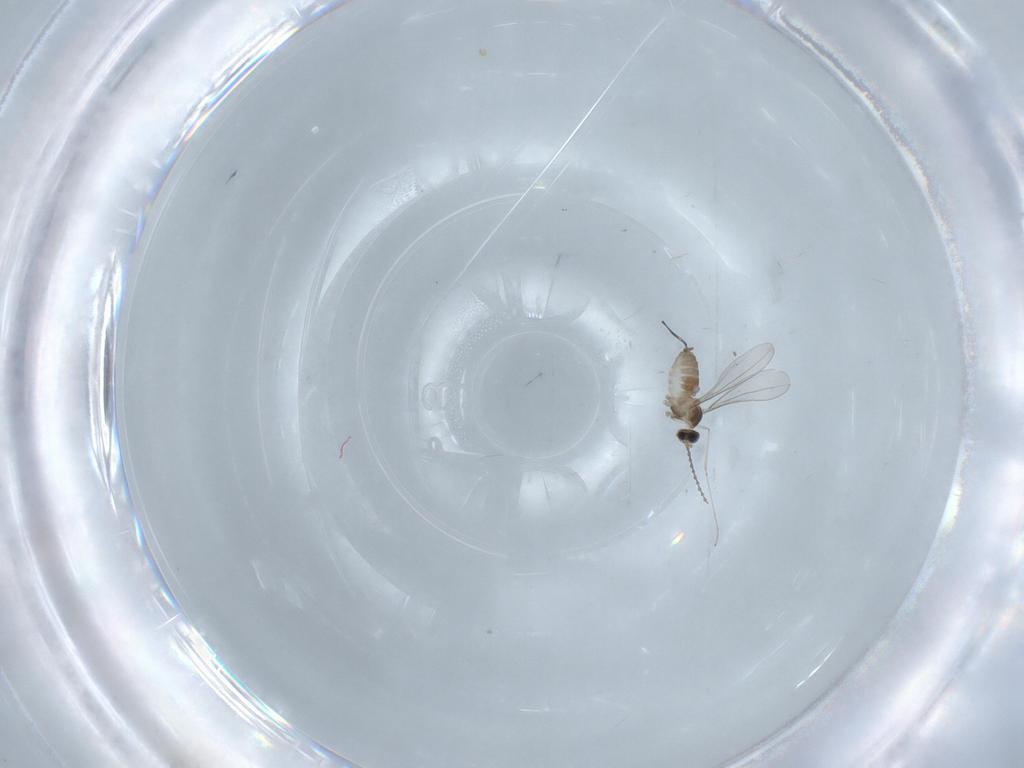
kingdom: Animalia
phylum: Arthropoda
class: Insecta
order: Diptera
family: Cecidomyiidae
